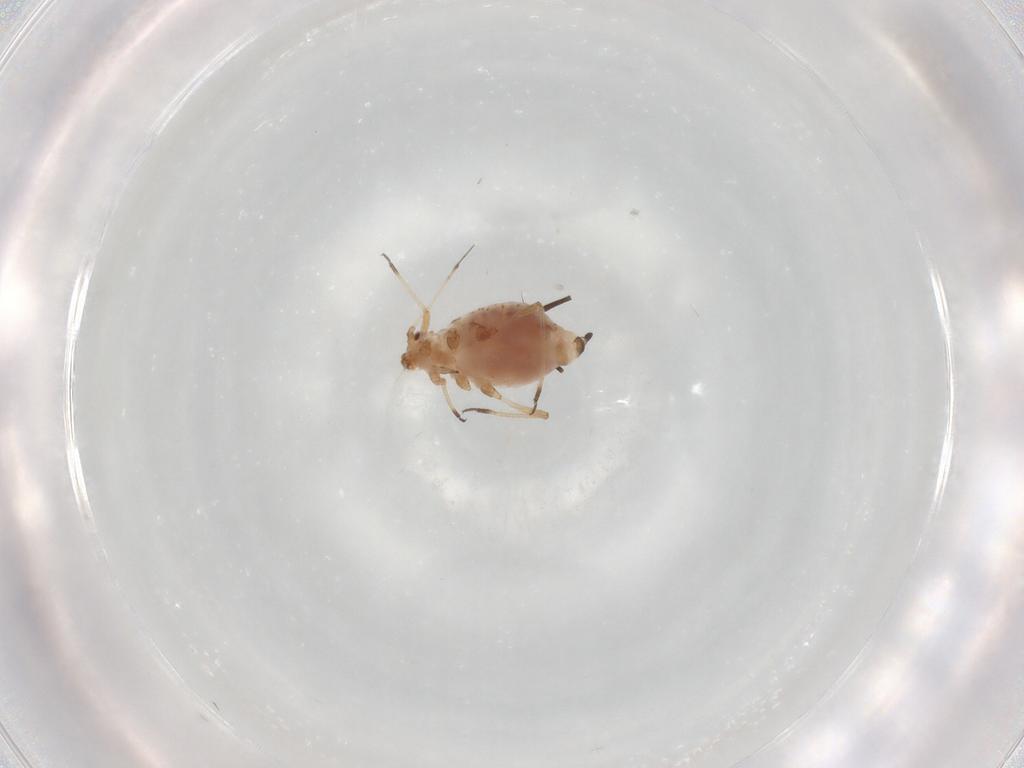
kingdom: Animalia
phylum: Arthropoda
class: Insecta
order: Hemiptera
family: Aphididae
